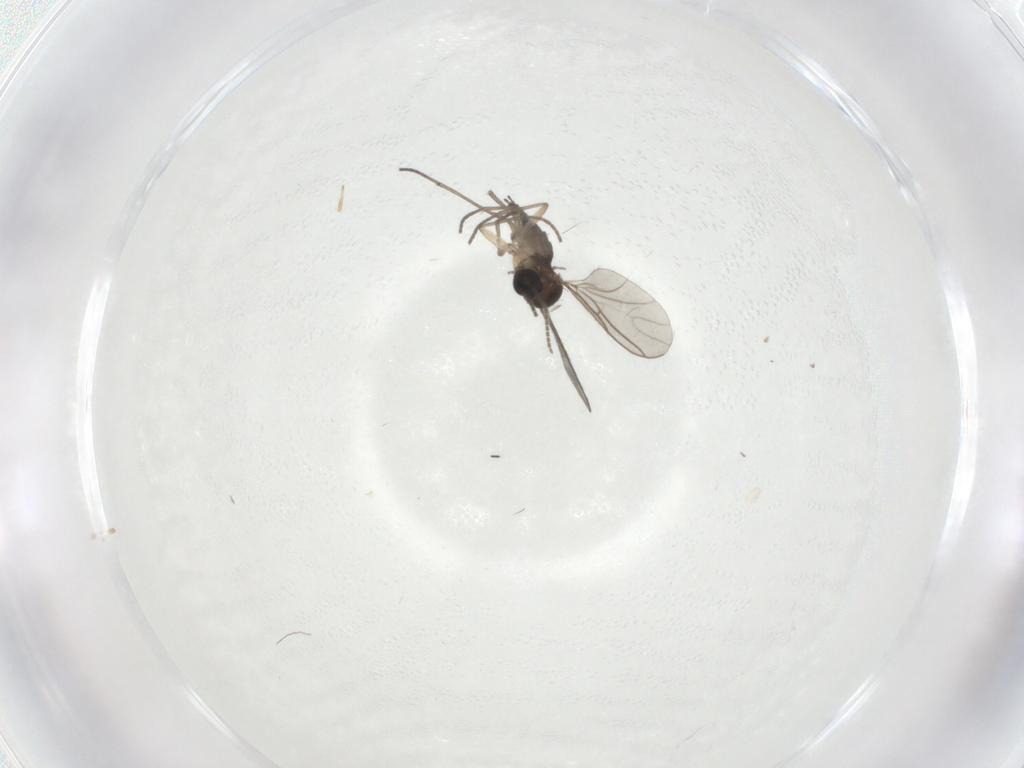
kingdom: Animalia
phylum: Arthropoda
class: Insecta
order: Diptera
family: Sciaridae
